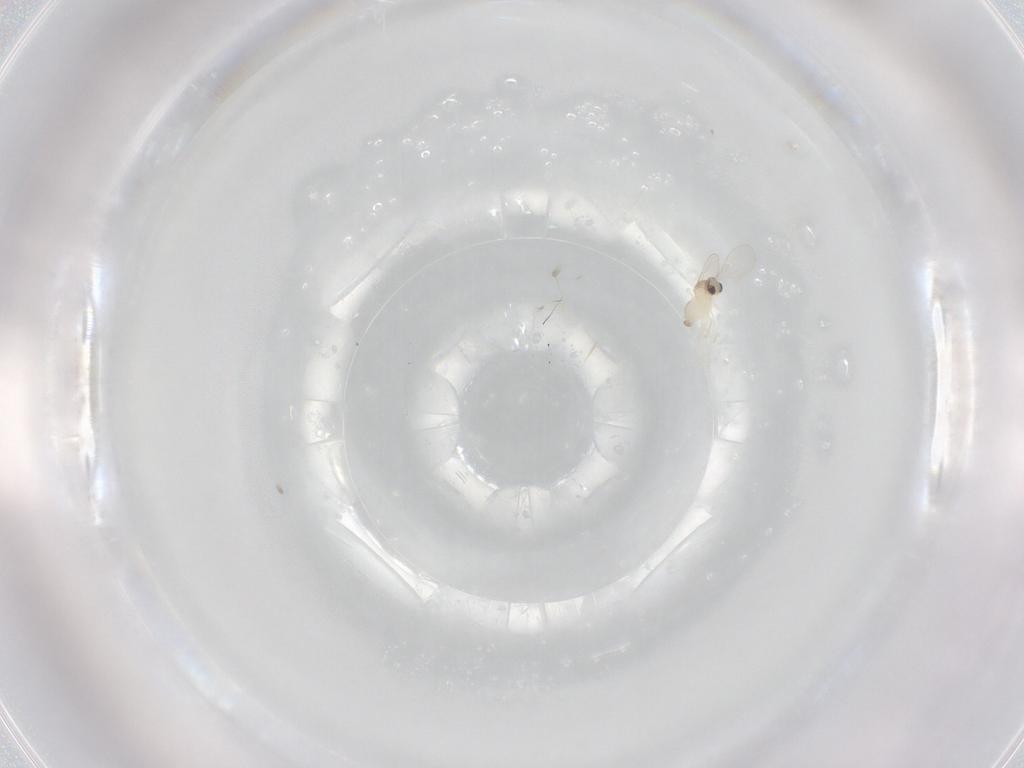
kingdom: Animalia
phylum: Arthropoda
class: Insecta
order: Diptera
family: Cecidomyiidae
